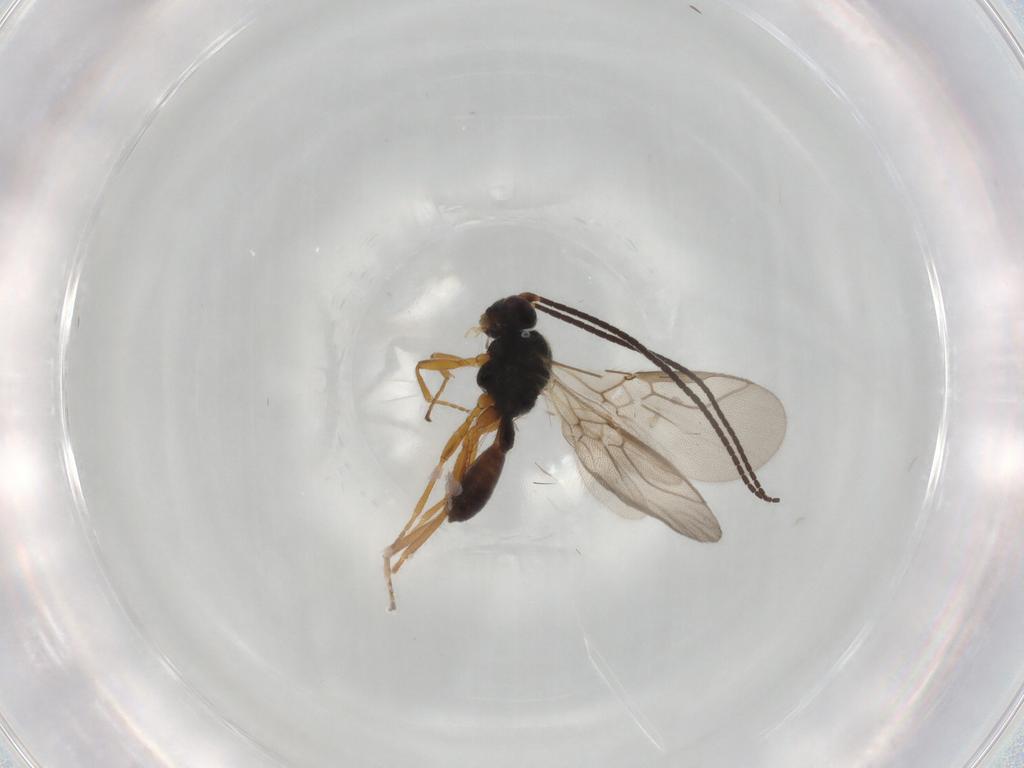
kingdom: Animalia
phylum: Arthropoda
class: Insecta
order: Hymenoptera
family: Braconidae
